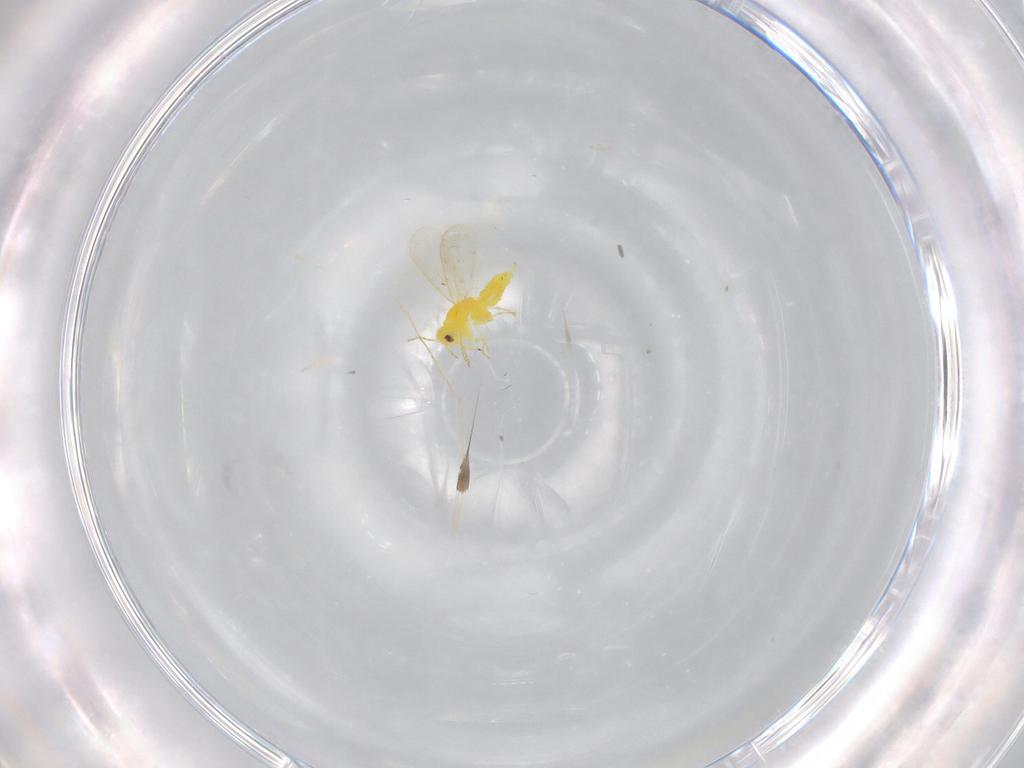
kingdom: Animalia
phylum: Arthropoda
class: Insecta
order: Hemiptera
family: Aleyrodidae
